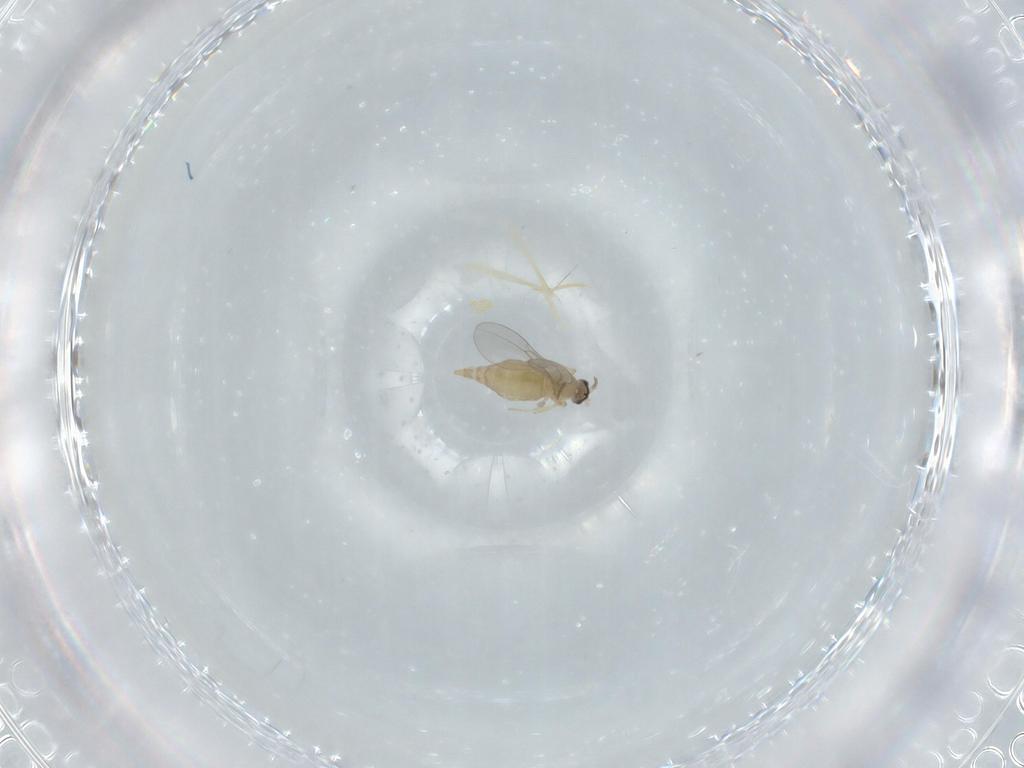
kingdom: Animalia
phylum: Arthropoda
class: Insecta
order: Diptera
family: Cecidomyiidae
